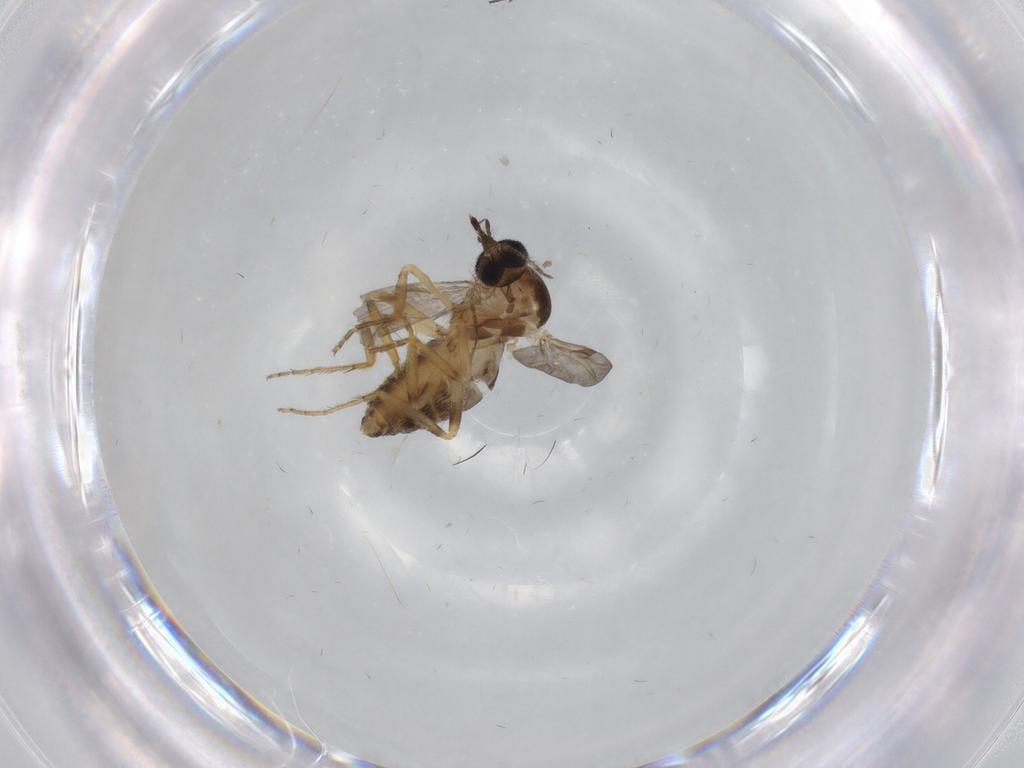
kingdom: Animalia
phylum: Arthropoda
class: Insecta
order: Diptera
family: Ceratopogonidae
